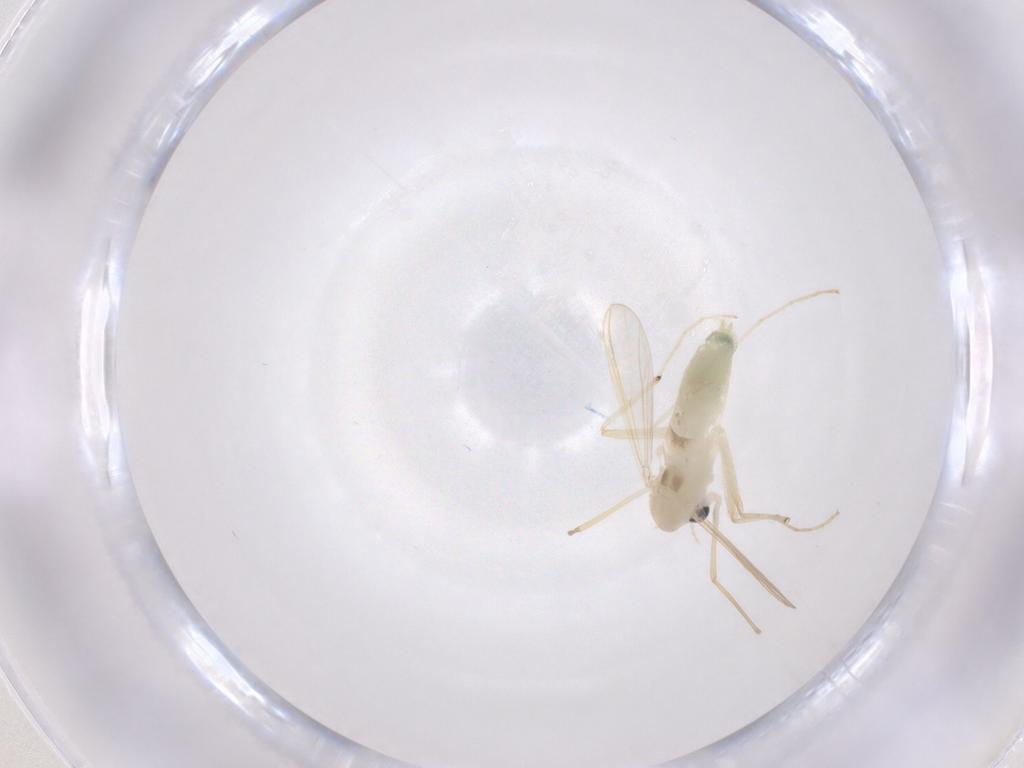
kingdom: Animalia
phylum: Arthropoda
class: Insecta
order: Diptera
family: Chironomidae
